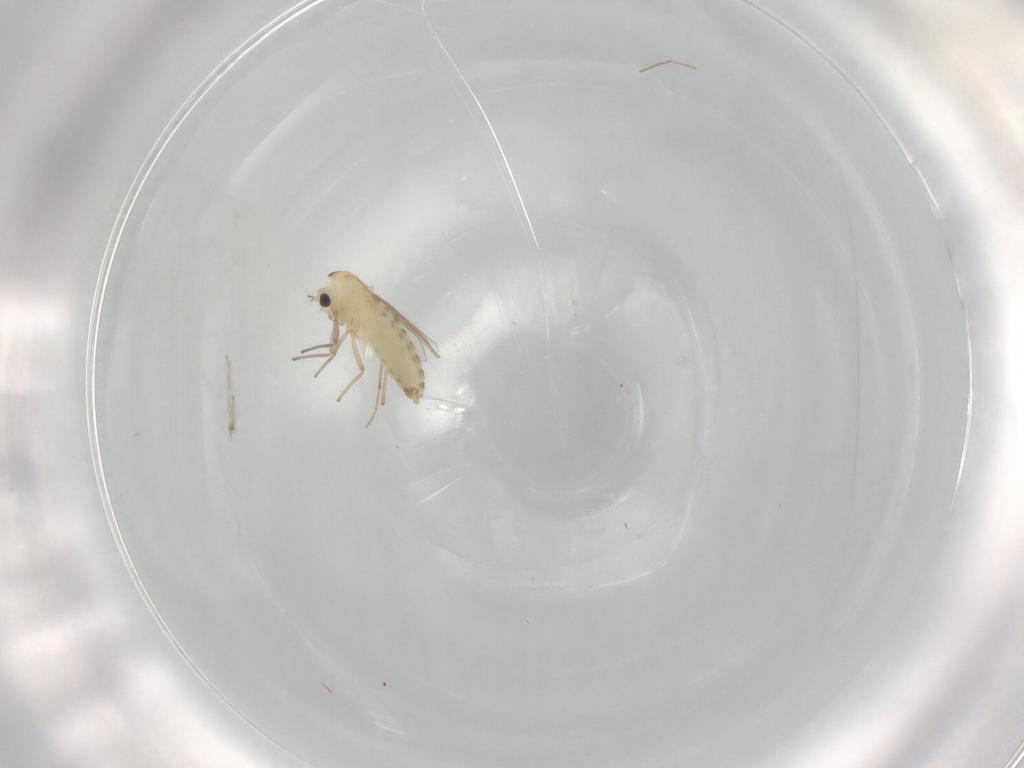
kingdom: Animalia
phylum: Arthropoda
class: Insecta
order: Diptera
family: Chironomidae
